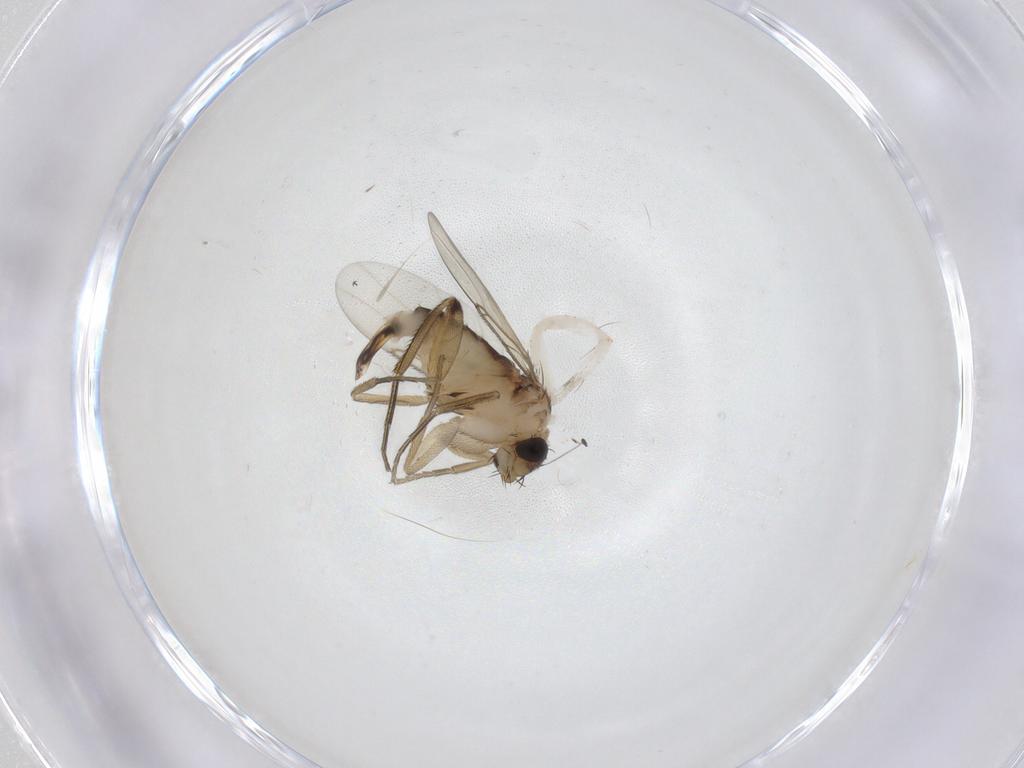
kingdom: Animalia
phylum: Arthropoda
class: Insecta
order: Diptera
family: Phoridae
